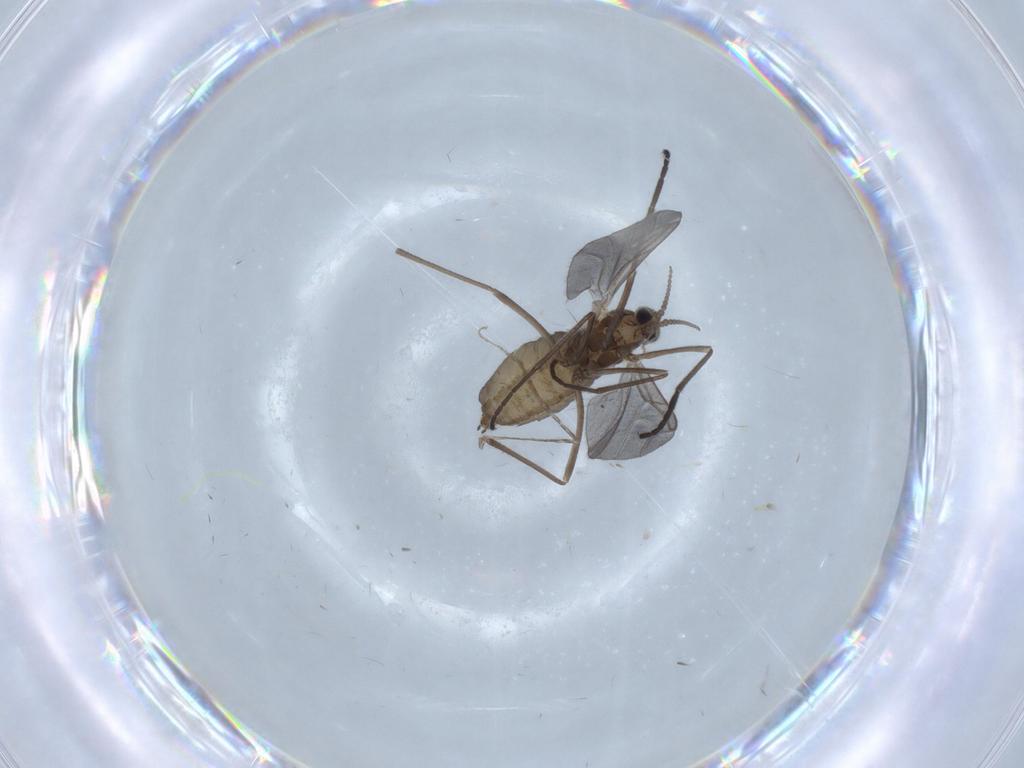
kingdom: Animalia
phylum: Arthropoda
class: Insecta
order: Diptera
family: Cecidomyiidae
